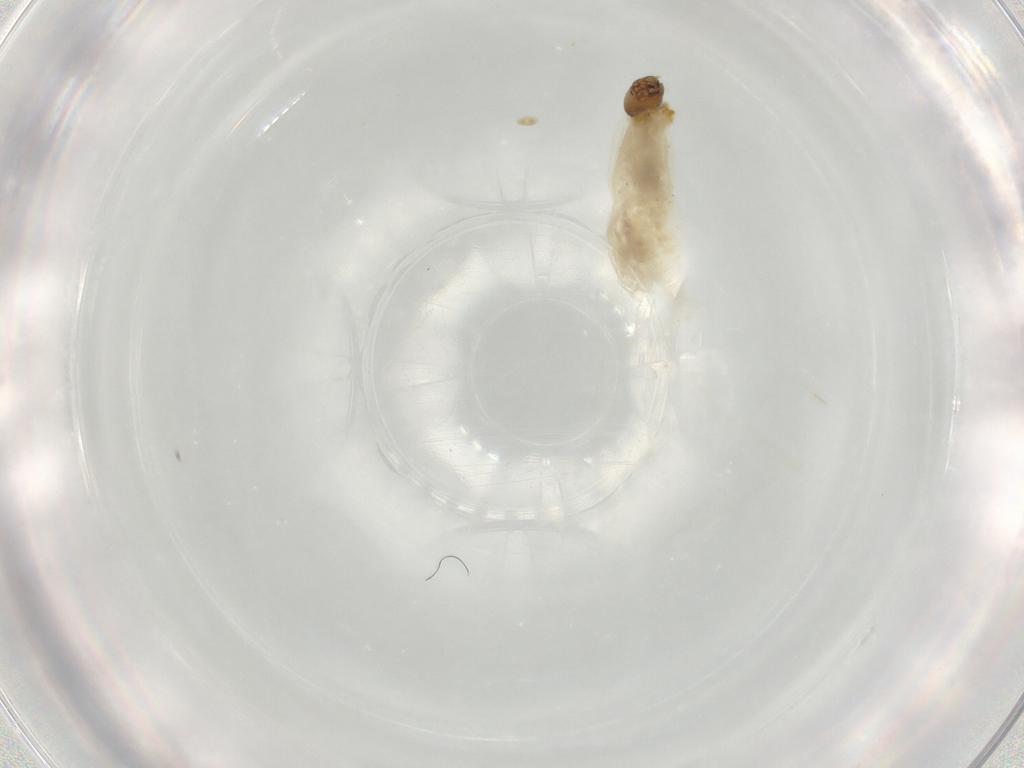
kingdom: Animalia
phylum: Arthropoda
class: Insecta
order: Diptera
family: Chironomidae
